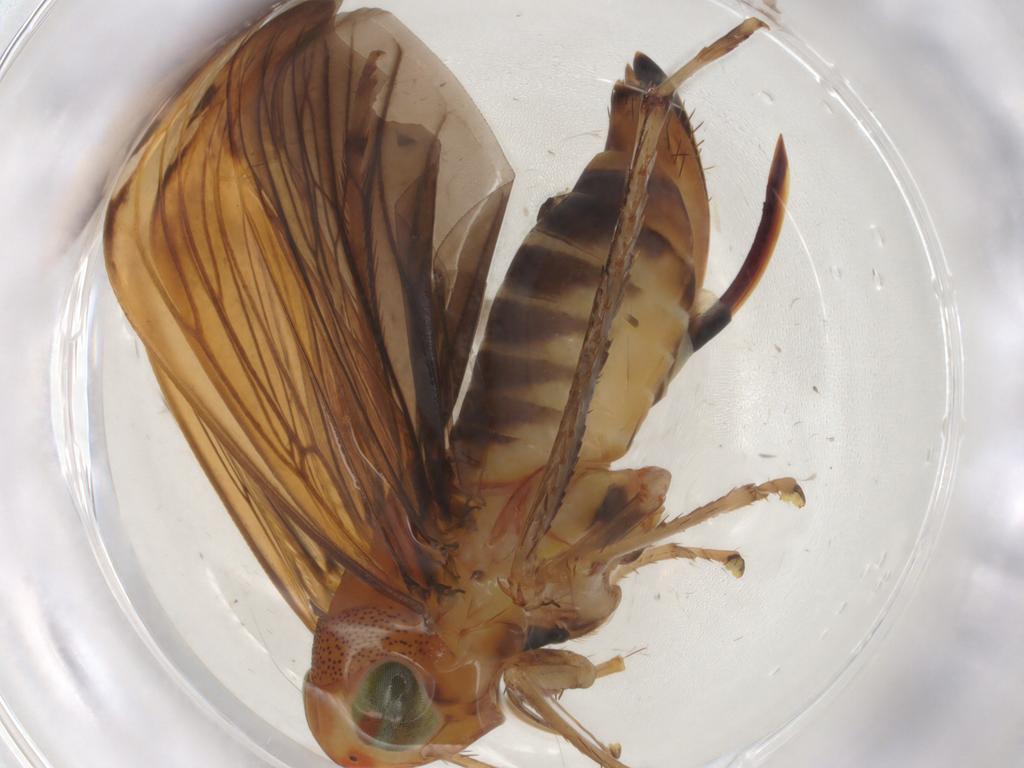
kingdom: Animalia
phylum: Arthropoda
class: Insecta
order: Hemiptera
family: Cicadellidae
